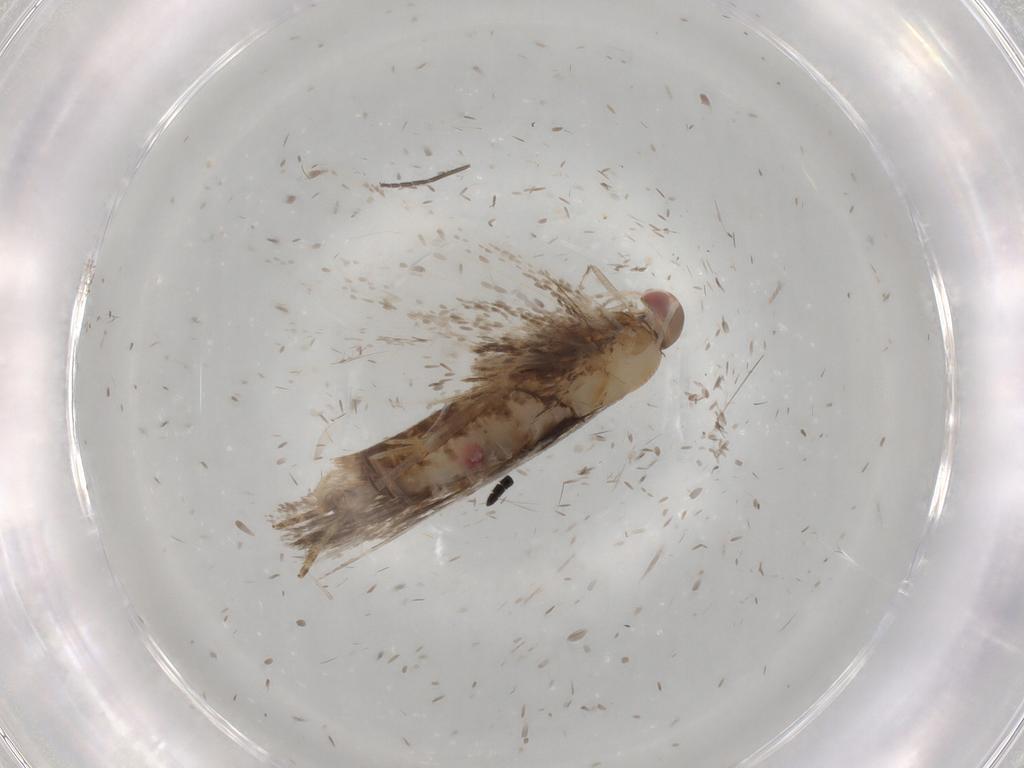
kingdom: Animalia
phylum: Arthropoda
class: Insecta
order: Lepidoptera
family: Gelechiidae
